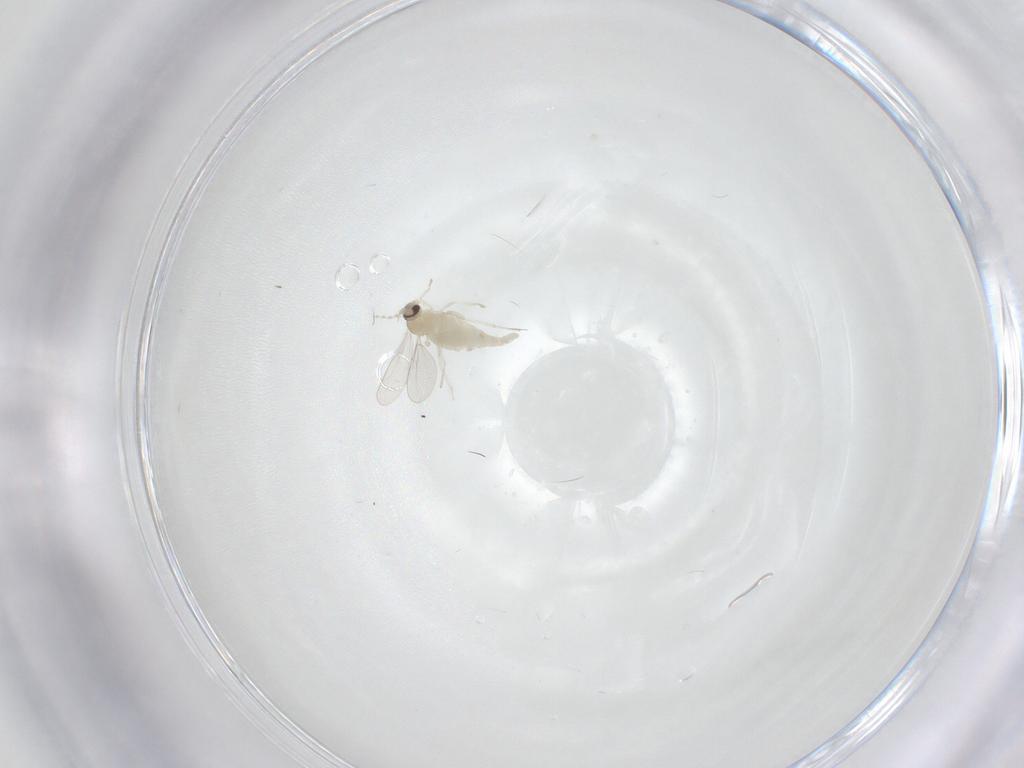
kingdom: Animalia
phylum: Arthropoda
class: Insecta
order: Diptera
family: Cecidomyiidae
